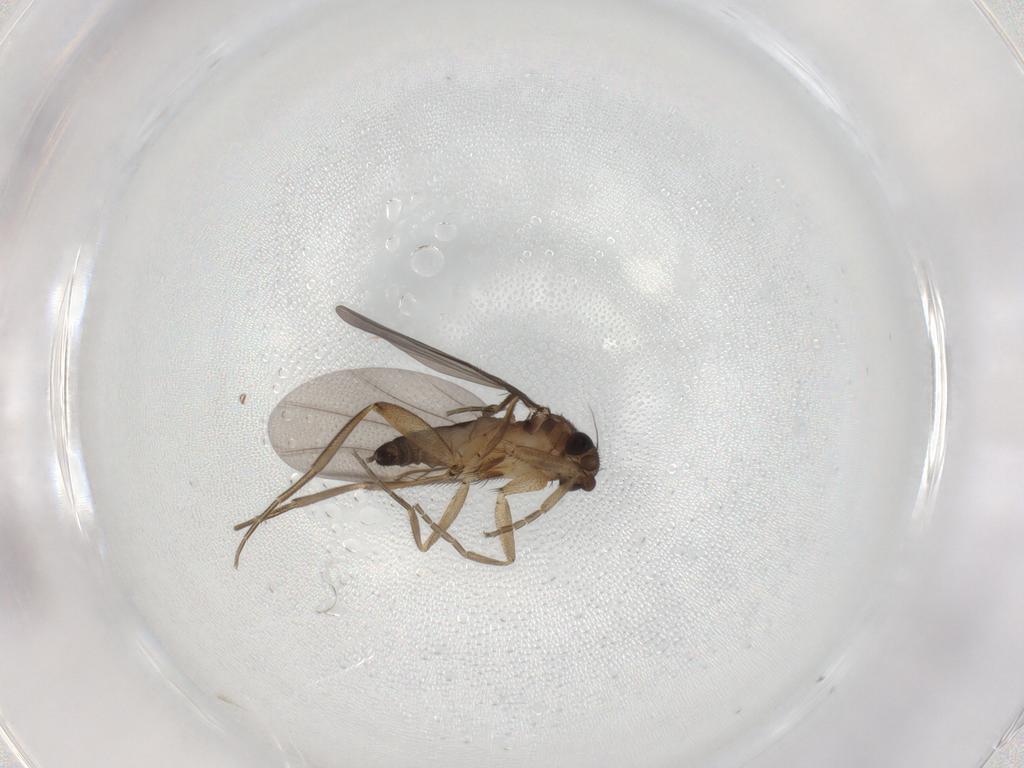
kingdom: Animalia
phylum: Arthropoda
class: Insecta
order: Diptera
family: Phoridae
